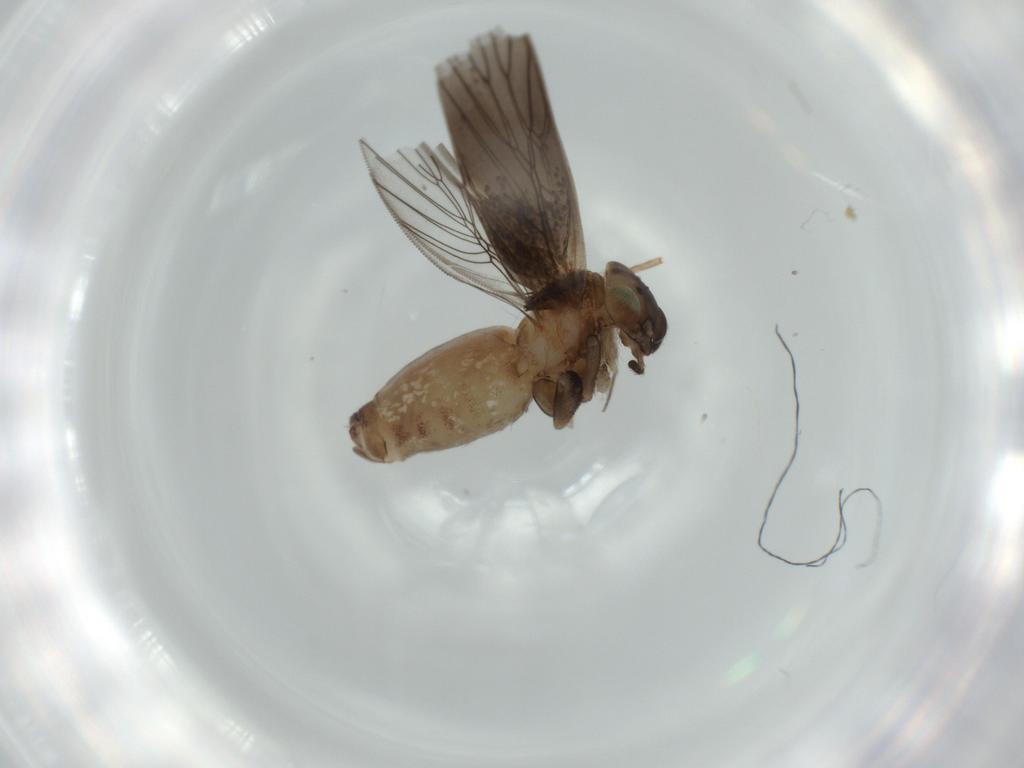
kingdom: Animalia
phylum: Arthropoda
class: Insecta
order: Psocodea
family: Lepidopsocidae
